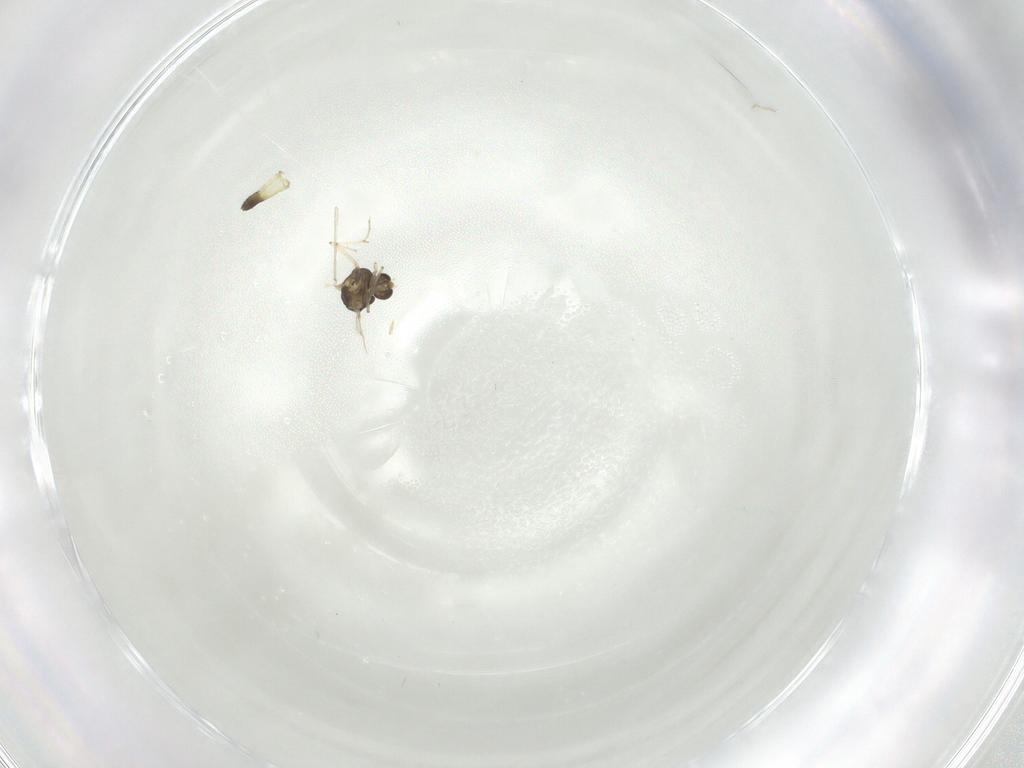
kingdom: Animalia
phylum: Arthropoda
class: Insecta
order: Diptera
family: Chironomidae
